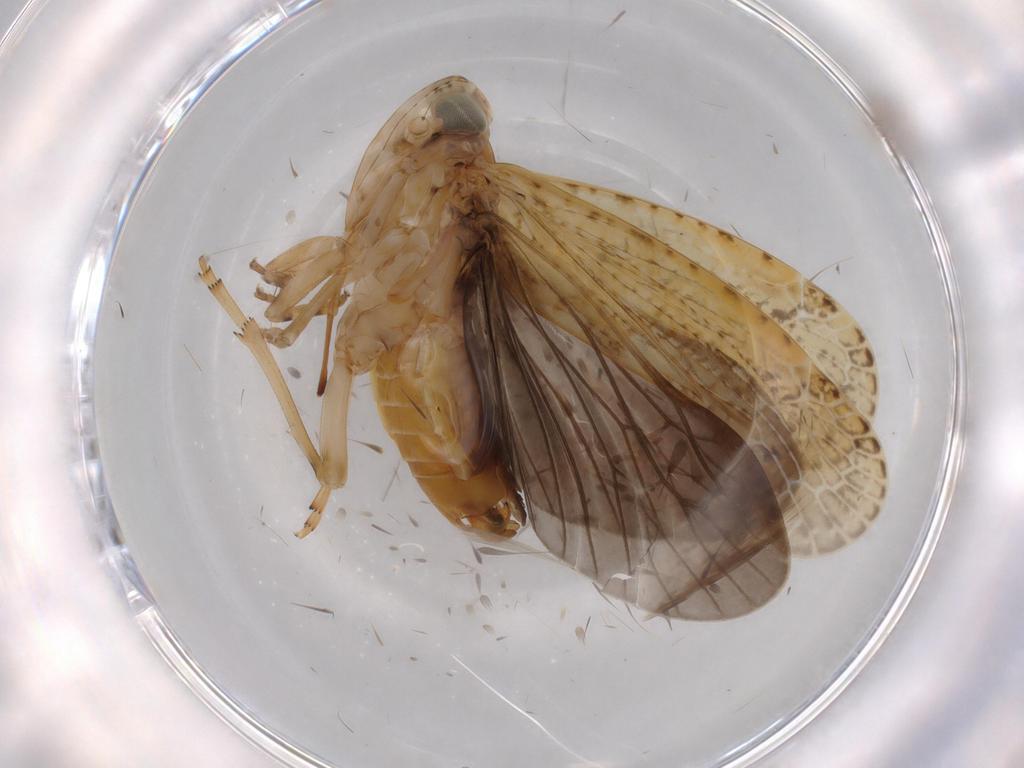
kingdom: Animalia
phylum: Arthropoda
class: Insecta
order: Hemiptera
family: Achilidae
